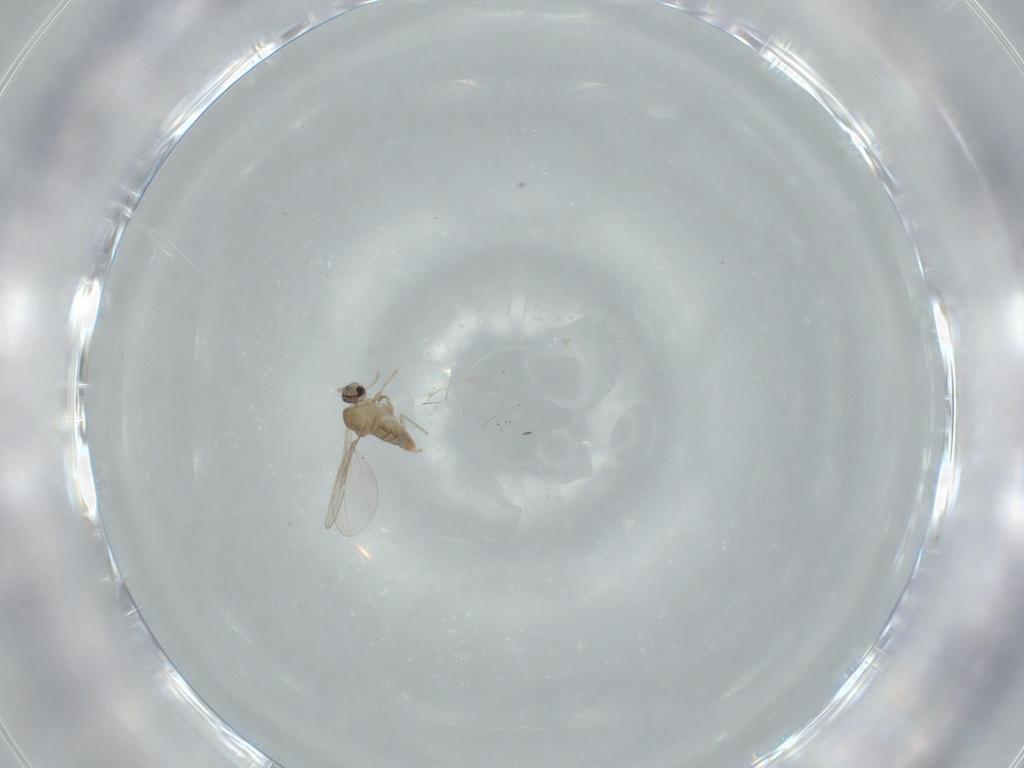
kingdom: Animalia
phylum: Arthropoda
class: Insecta
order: Diptera
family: Cecidomyiidae
